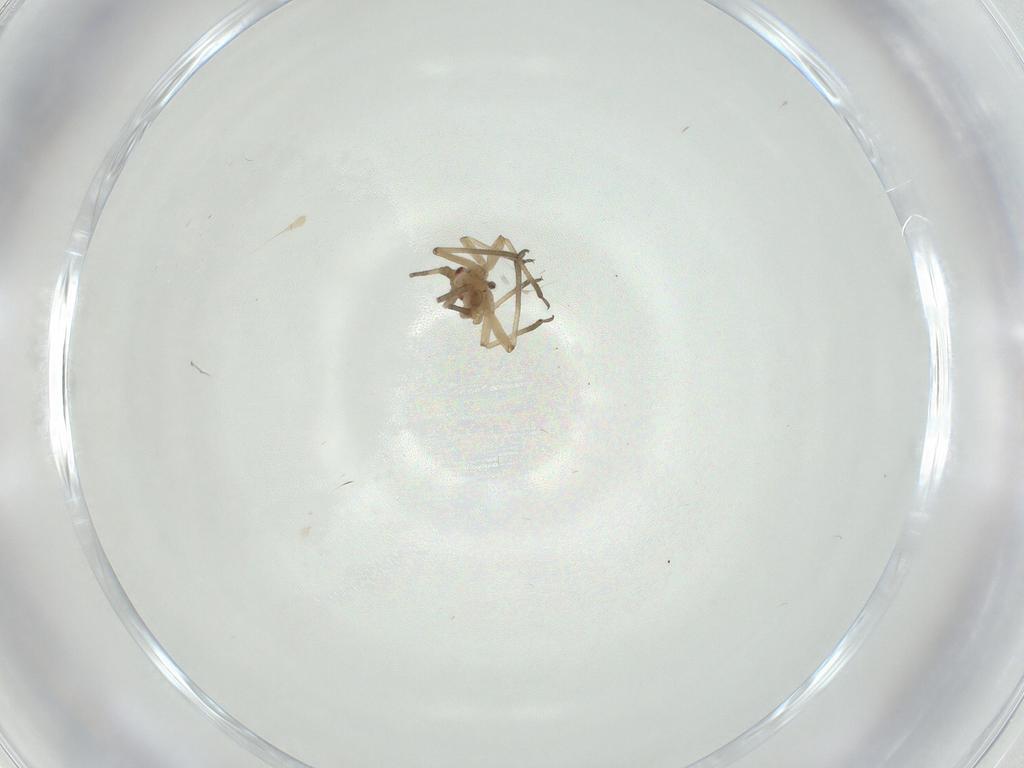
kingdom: Animalia
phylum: Arthropoda
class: Insecta
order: Hemiptera
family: Aphididae
